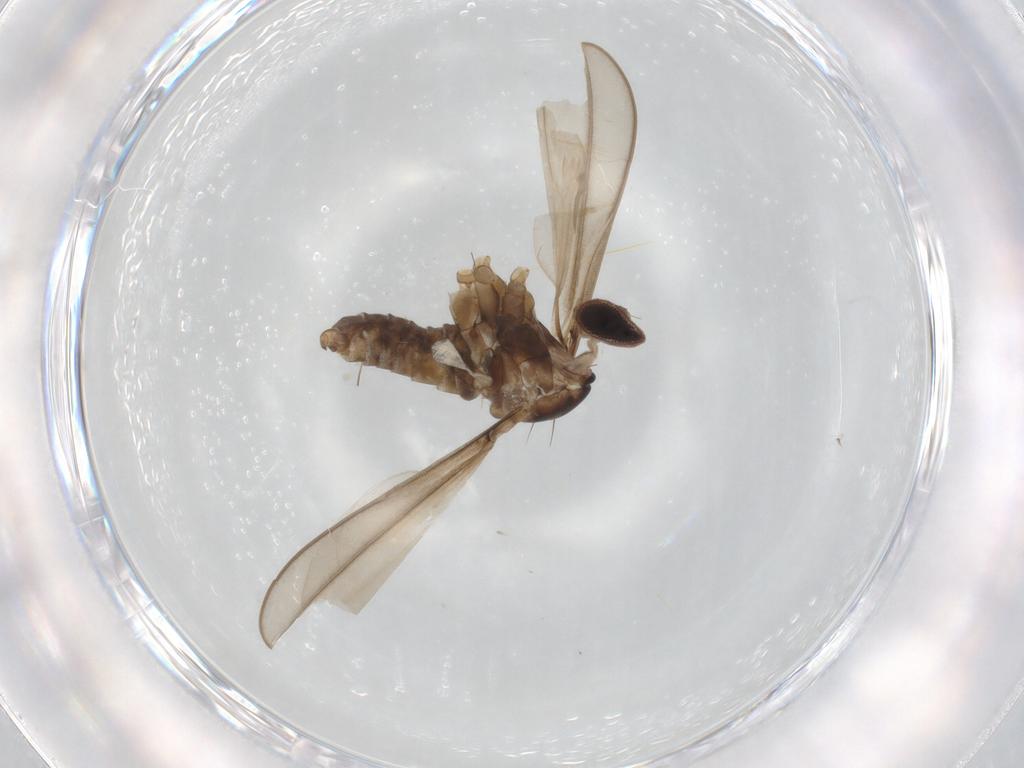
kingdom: Animalia
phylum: Arthropoda
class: Insecta
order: Diptera
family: Cecidomyiidae
